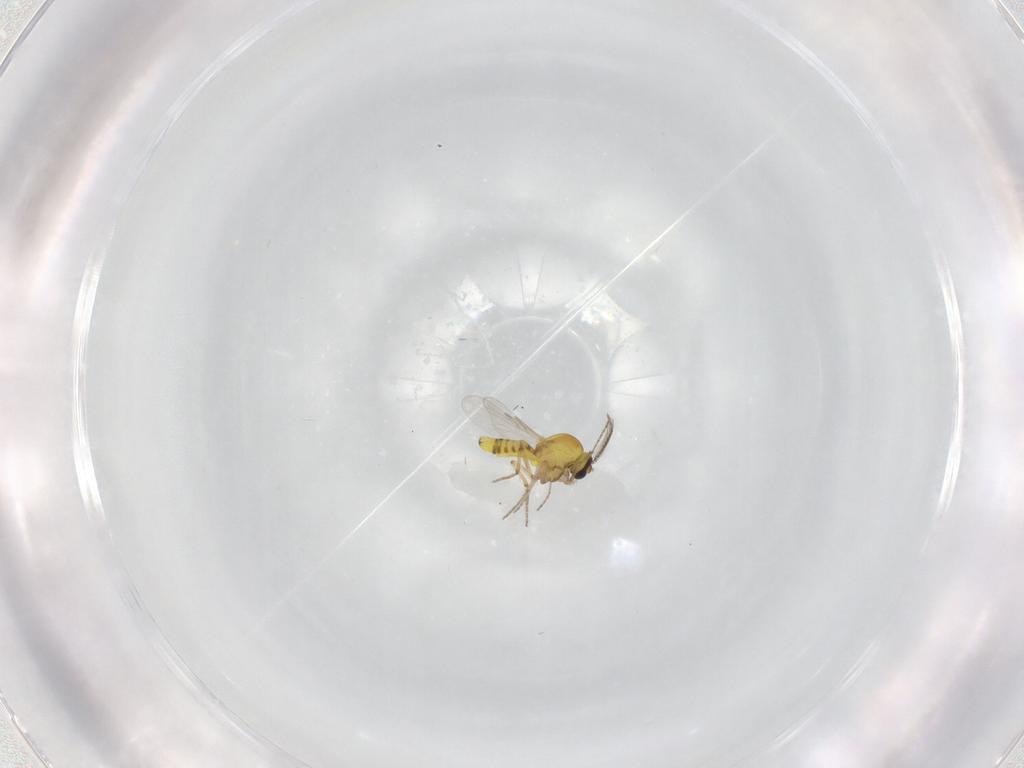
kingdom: Animalia
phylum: Arthropoda
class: Insecta
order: Diptera
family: Ceratopogonidae
